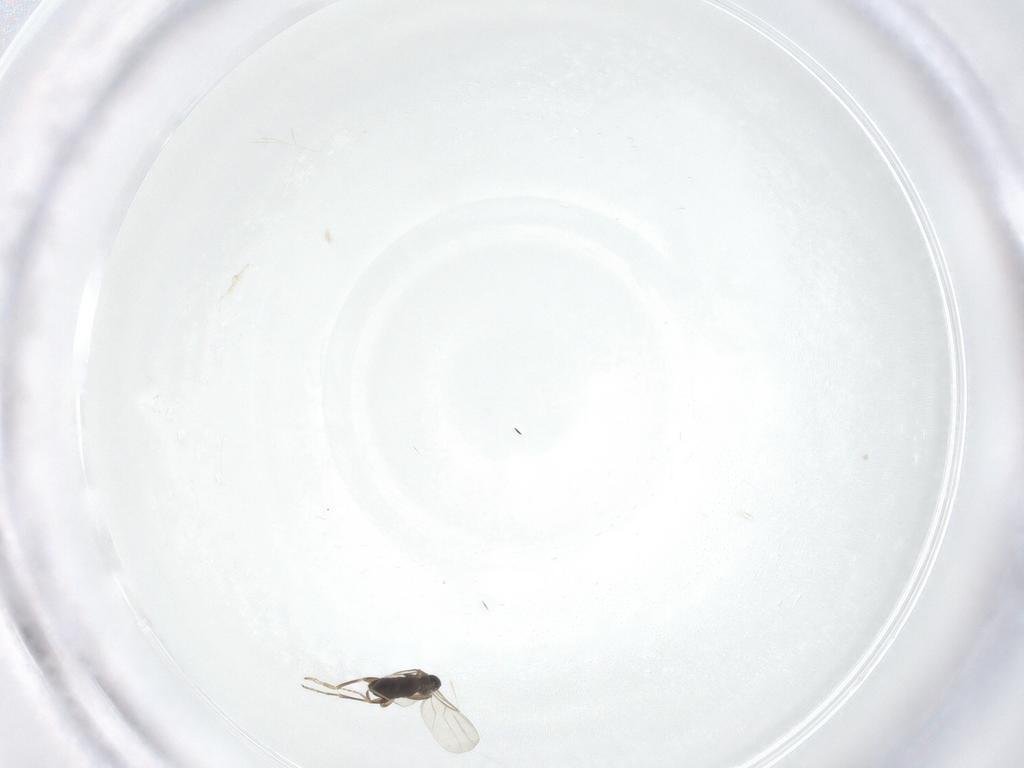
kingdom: Animalia
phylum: Arthropoda
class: Insecta
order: Diptera
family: Phoridae
